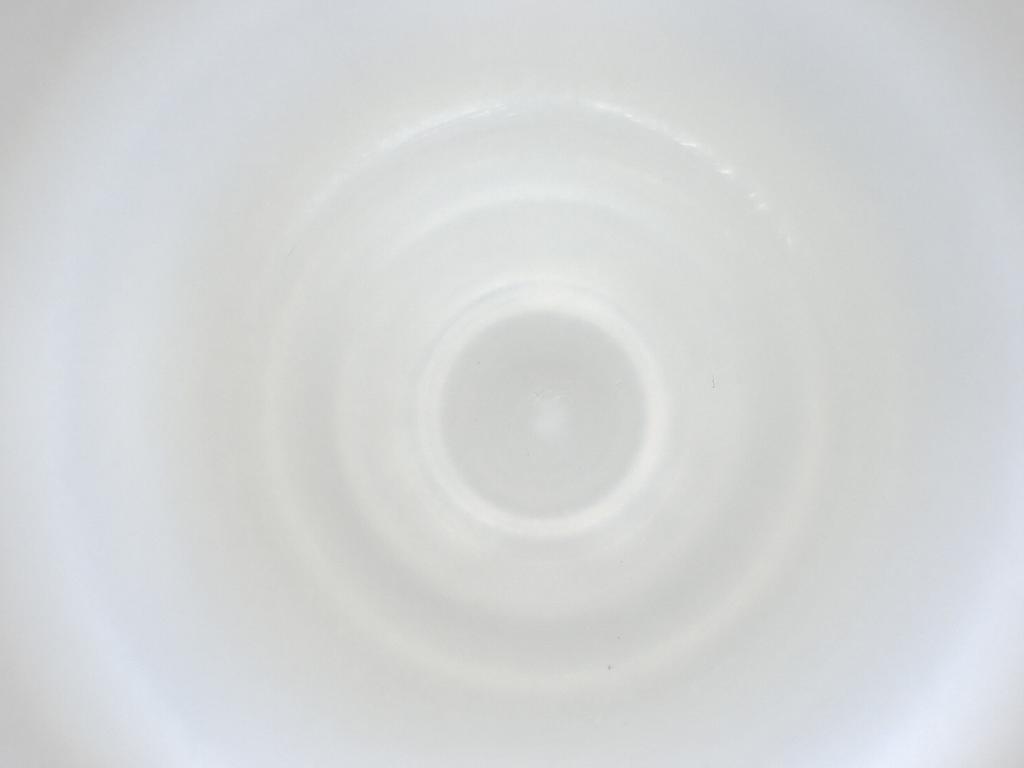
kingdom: Animalia
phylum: Arthropoda
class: Insecta
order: Diptera
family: Cecidomyiidae
